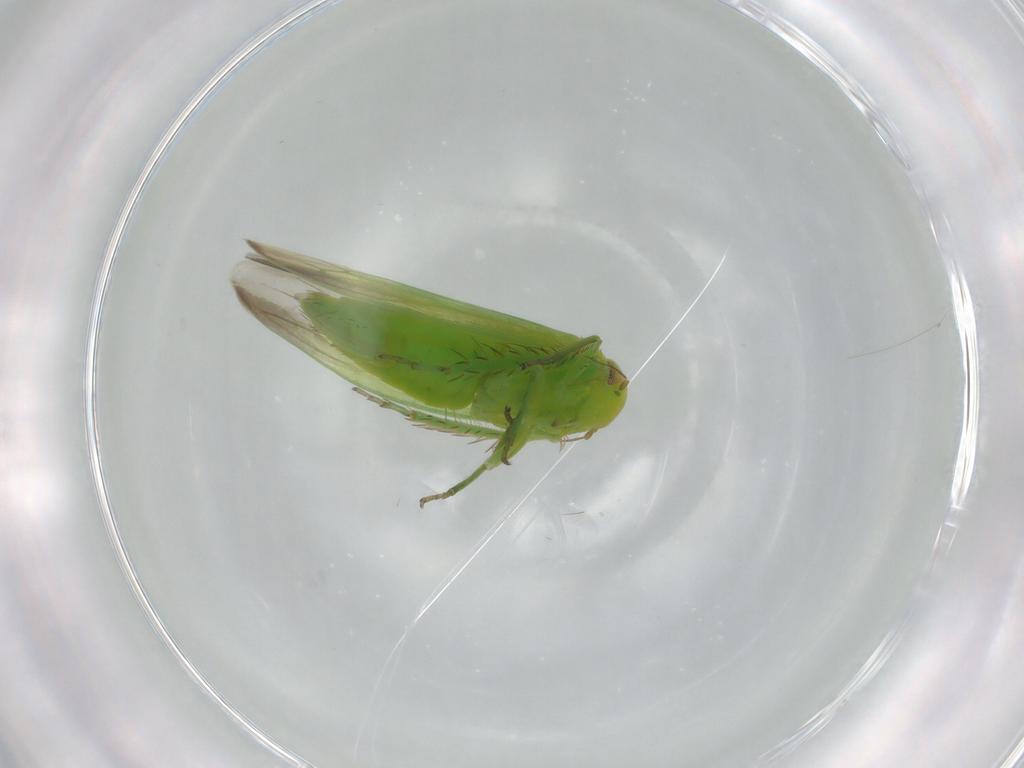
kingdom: Animalia
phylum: Arthropoda
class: Insecta
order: Hemiptera
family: Cicadellidae
